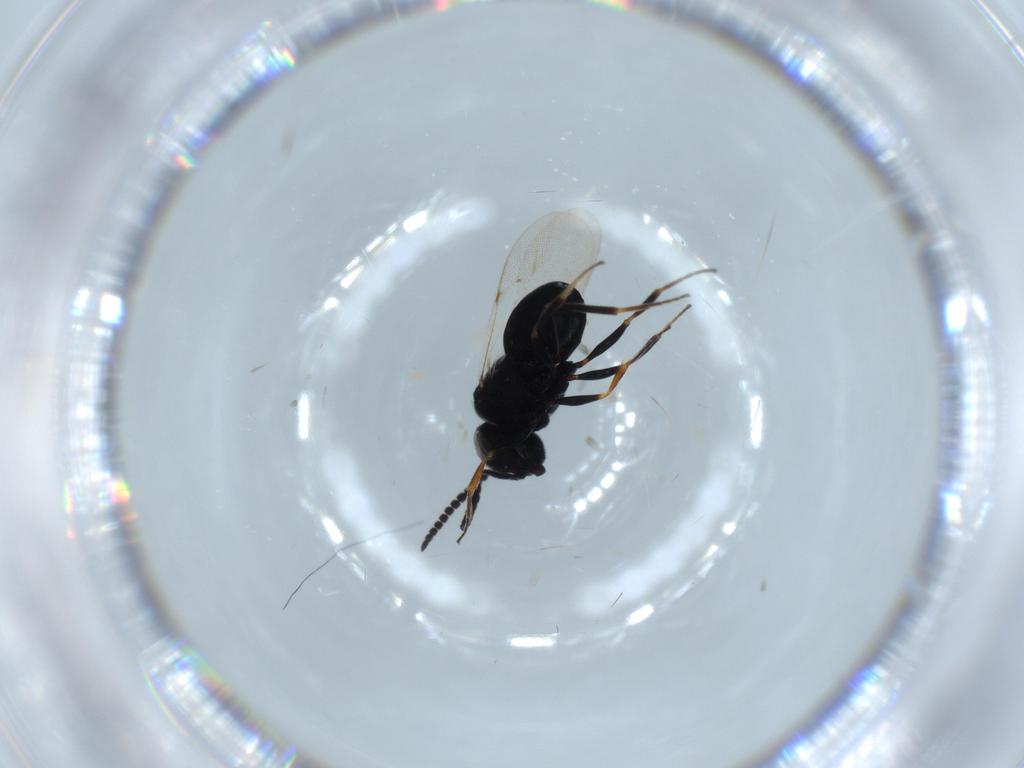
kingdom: Animalia
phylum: Arthropoda
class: Insecta
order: Hymenoptera
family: Scelionidae
